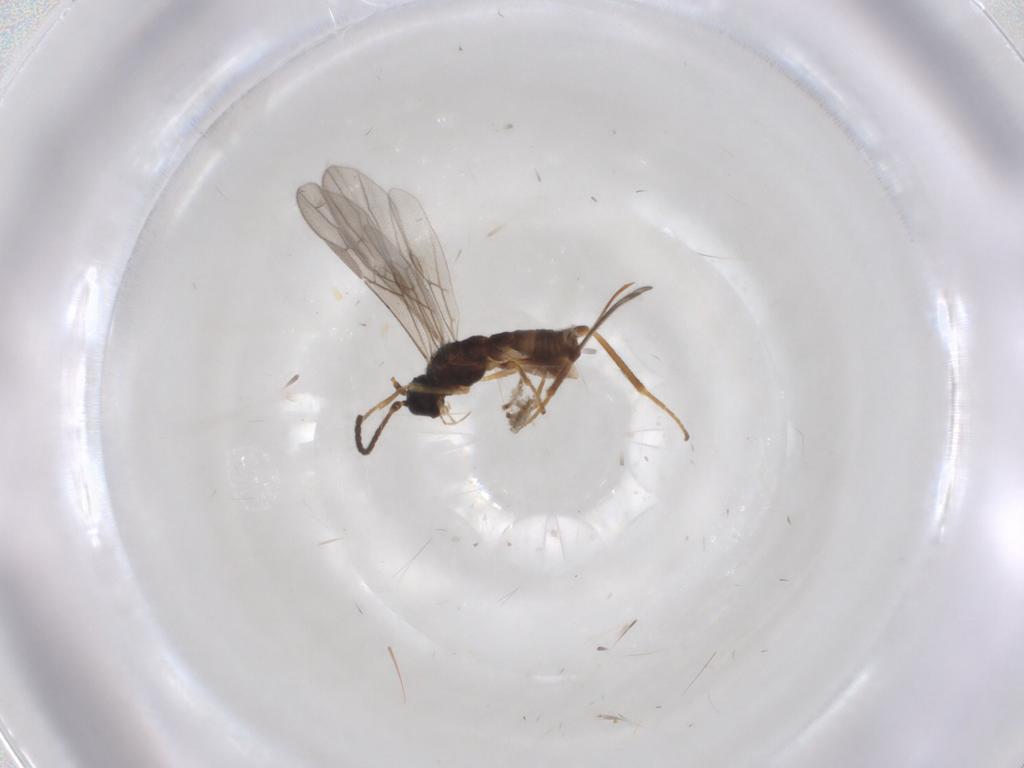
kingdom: Animalia
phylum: Arthropoda
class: Insecta
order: Hymenoptera
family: Braconidae
